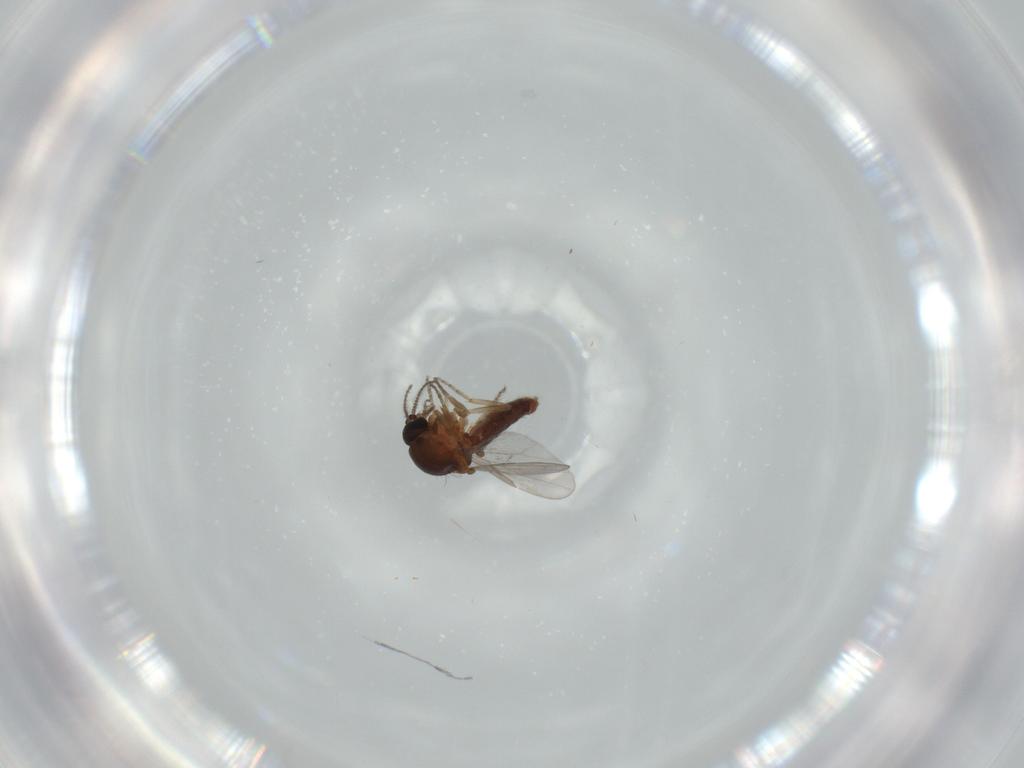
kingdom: Animalia
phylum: Arthropoda
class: Insecta
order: Diptera
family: Ceratopogonidae
